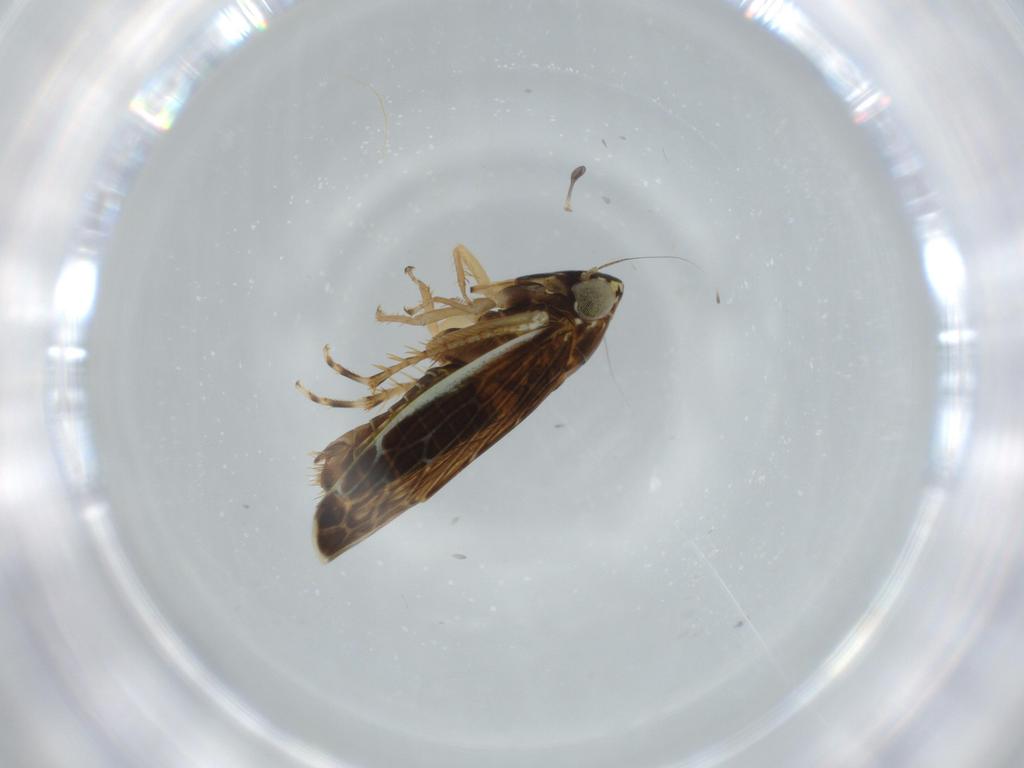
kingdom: Animalia
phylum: Arthropoda
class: Insecta
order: Hemiptera
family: Cicadellidae
